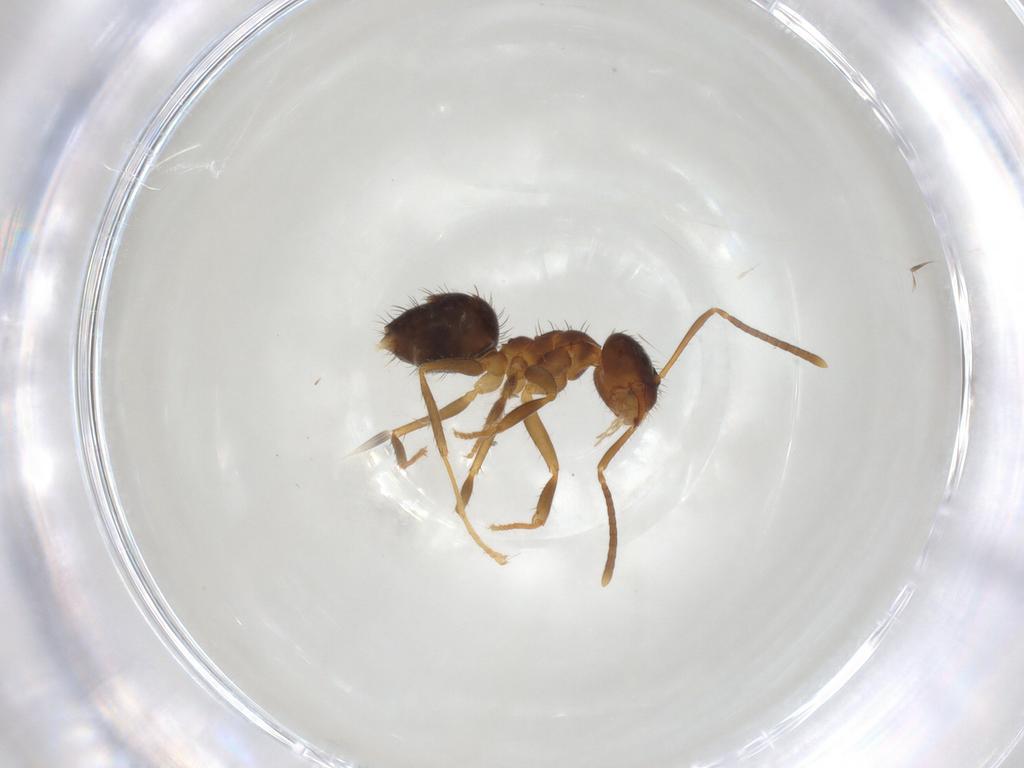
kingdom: Animalia
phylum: Arthropoda
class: Insecta
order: Hymenoptera
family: Formicidae
